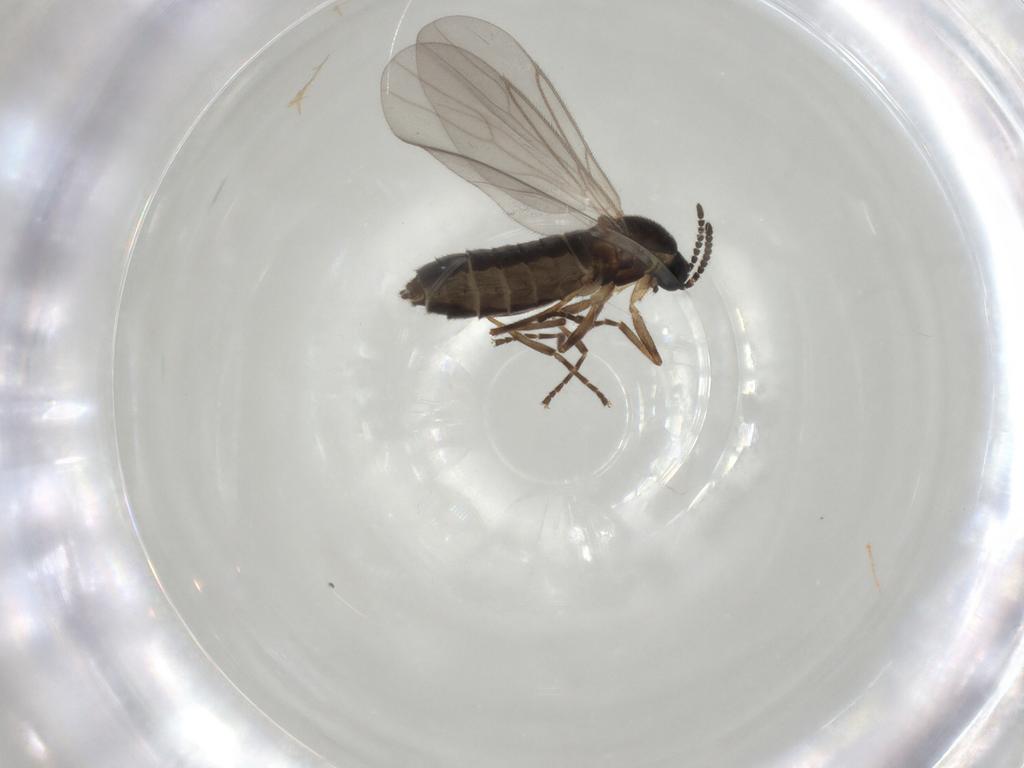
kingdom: Animalia
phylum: Arthropoda
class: Insecta
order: Diptera
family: Scatopsidae
